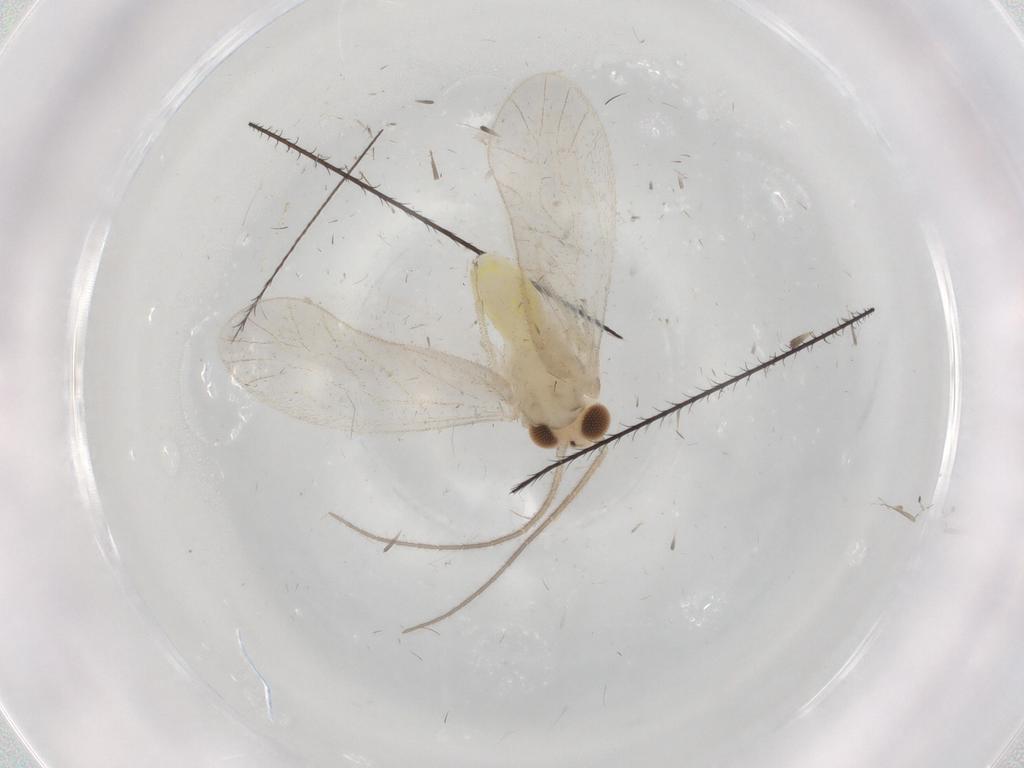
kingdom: Animalia
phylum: Arthropoda
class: Insecta
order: Psocodea
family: Caeciliusidae
